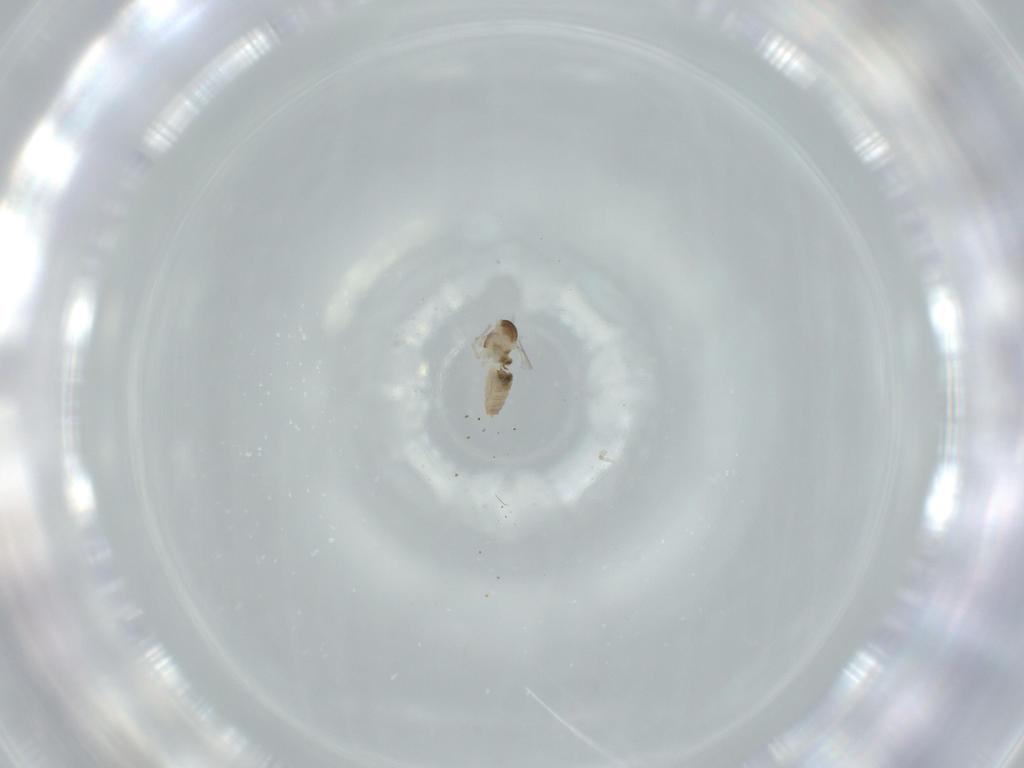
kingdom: Animalia
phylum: Arthropoda
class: Insecta
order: Diptera
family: Cecidomyiidae
